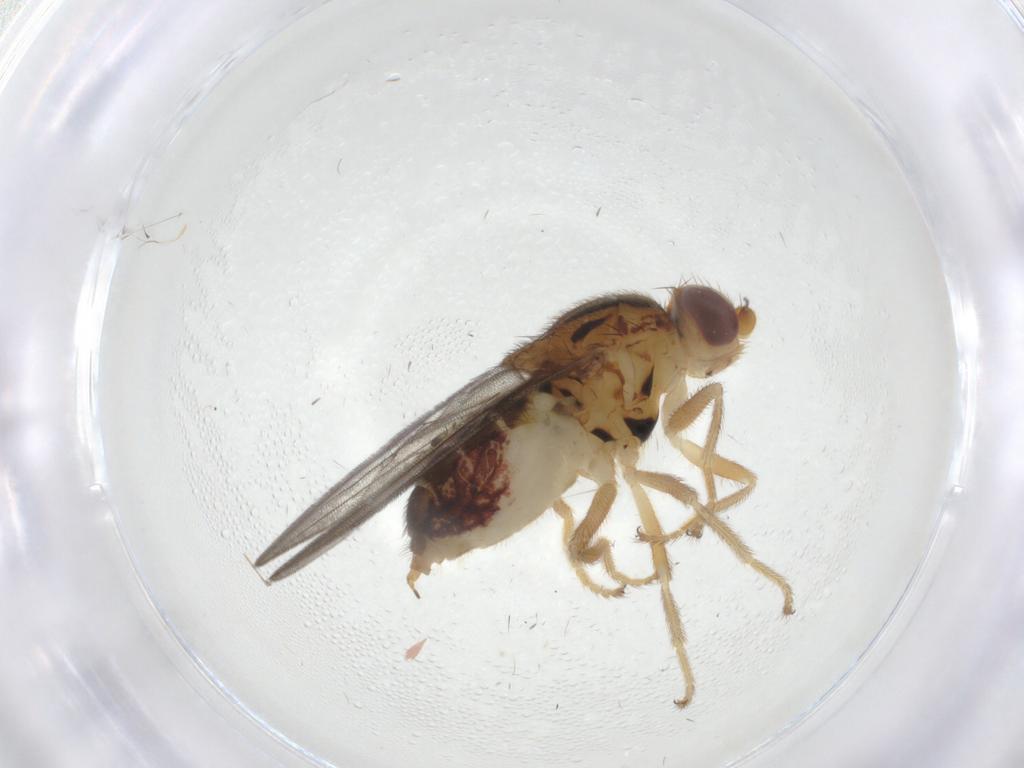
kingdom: Animalia
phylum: Arthropoda
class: Insecta
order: Diptera
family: Chloropidae
